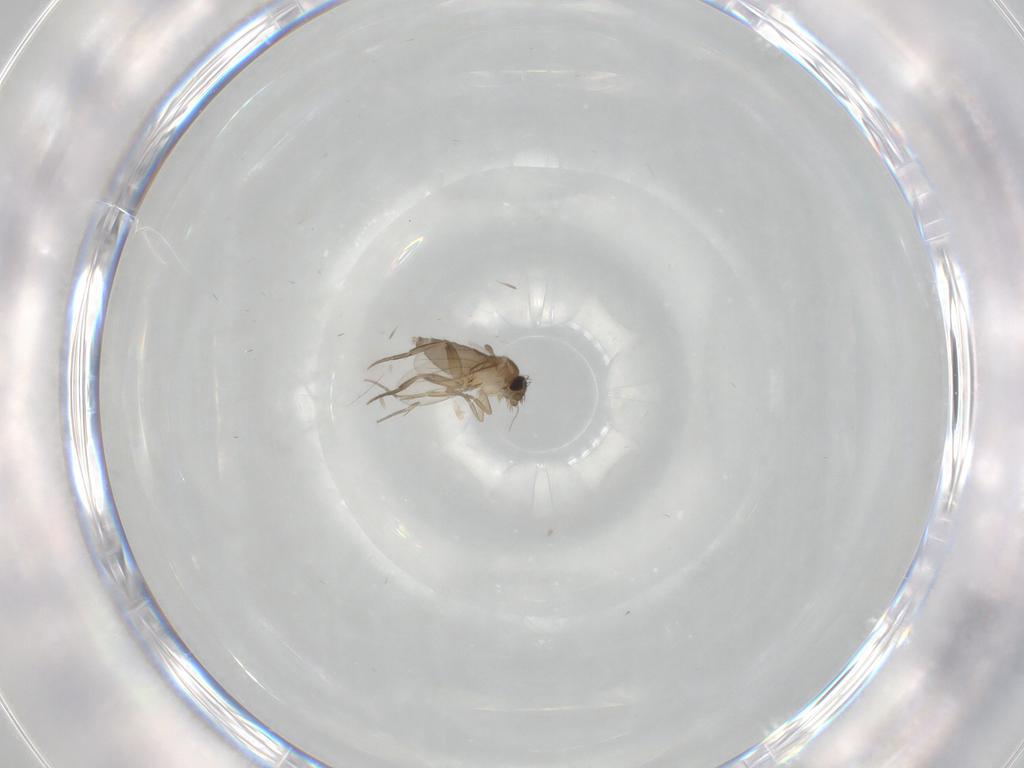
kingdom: Animalia
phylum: Arthropoda
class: Insecta
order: Diptera
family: Phoridae
